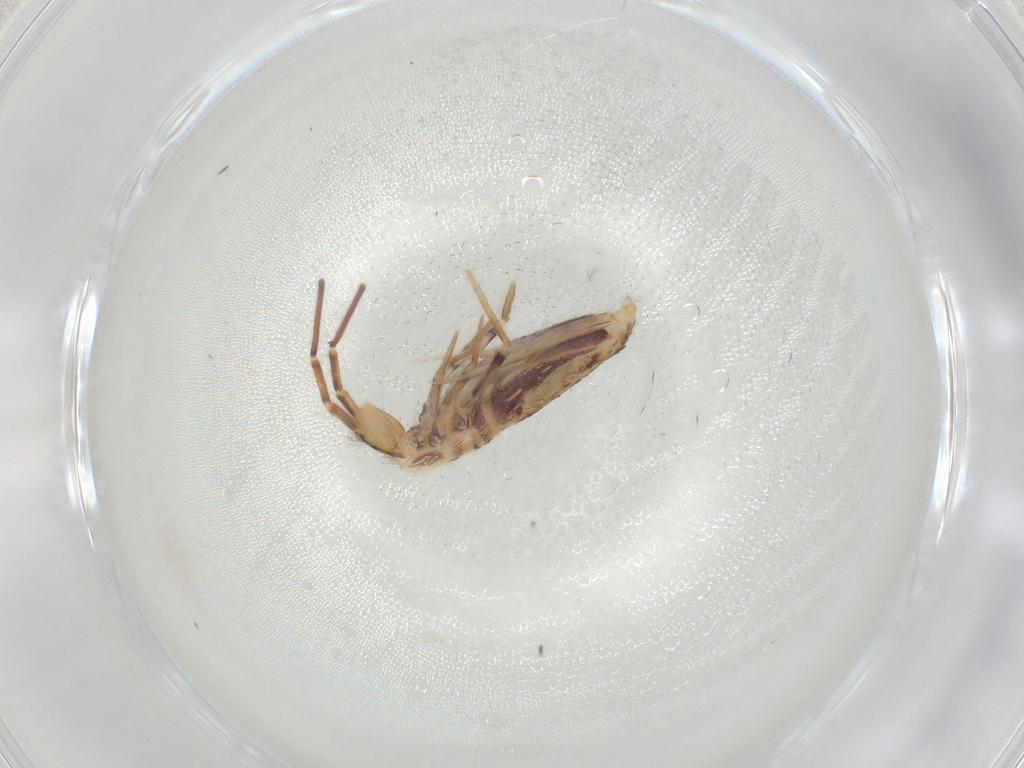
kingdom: Animalia
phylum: Arthropoda
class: Collembola
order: Poduromorpha
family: Hypogastruridae
